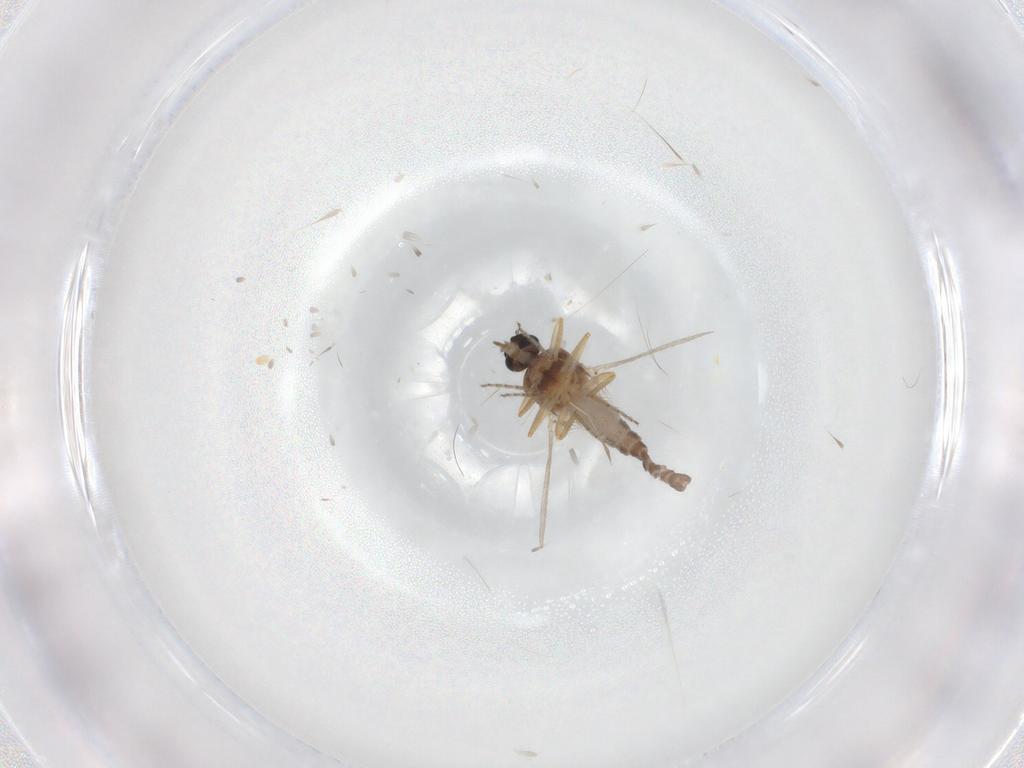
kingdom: Animalia
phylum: Arthropoda
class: Insecta
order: Diptera
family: Ceratopogonidae
